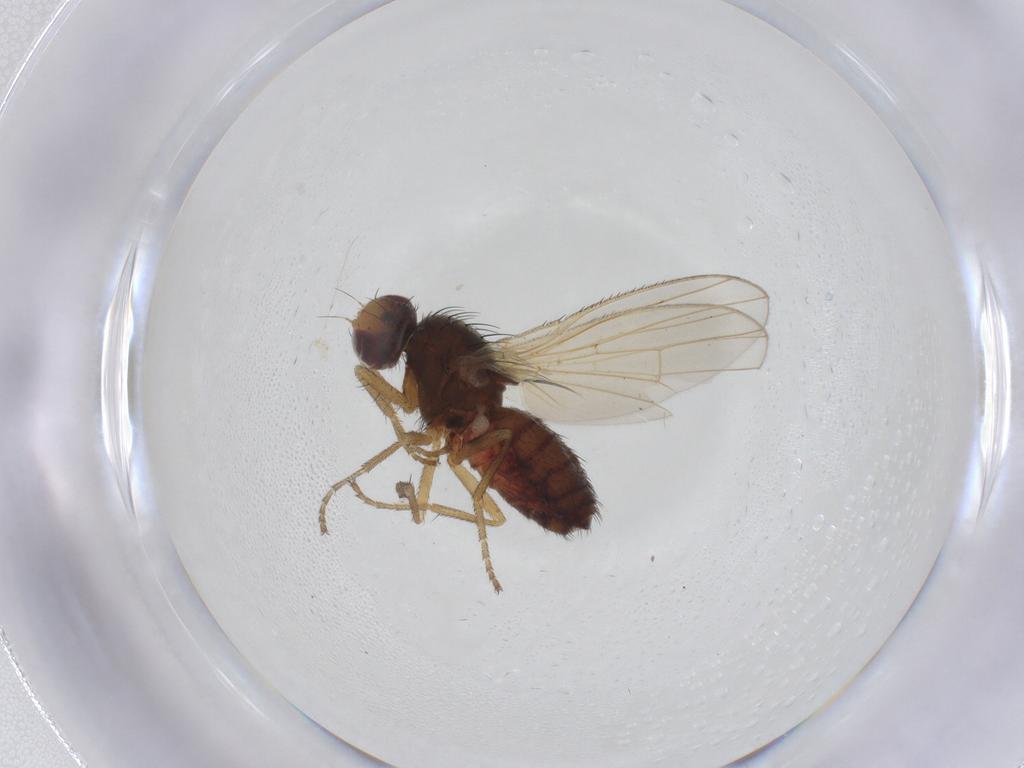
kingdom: Animalia
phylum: Arthropoda
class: Insecta
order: Diptera
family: Heleomyzidae
